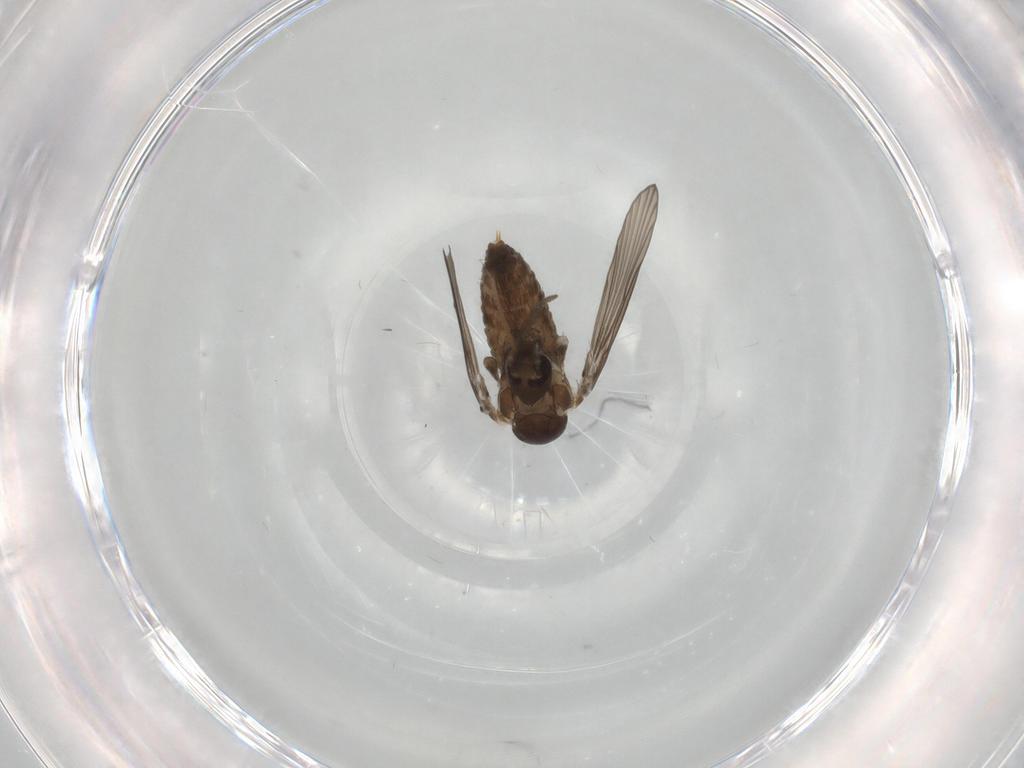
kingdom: Animalia
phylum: Arthropoda
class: Insecta
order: Diptera
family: Psychodidae
